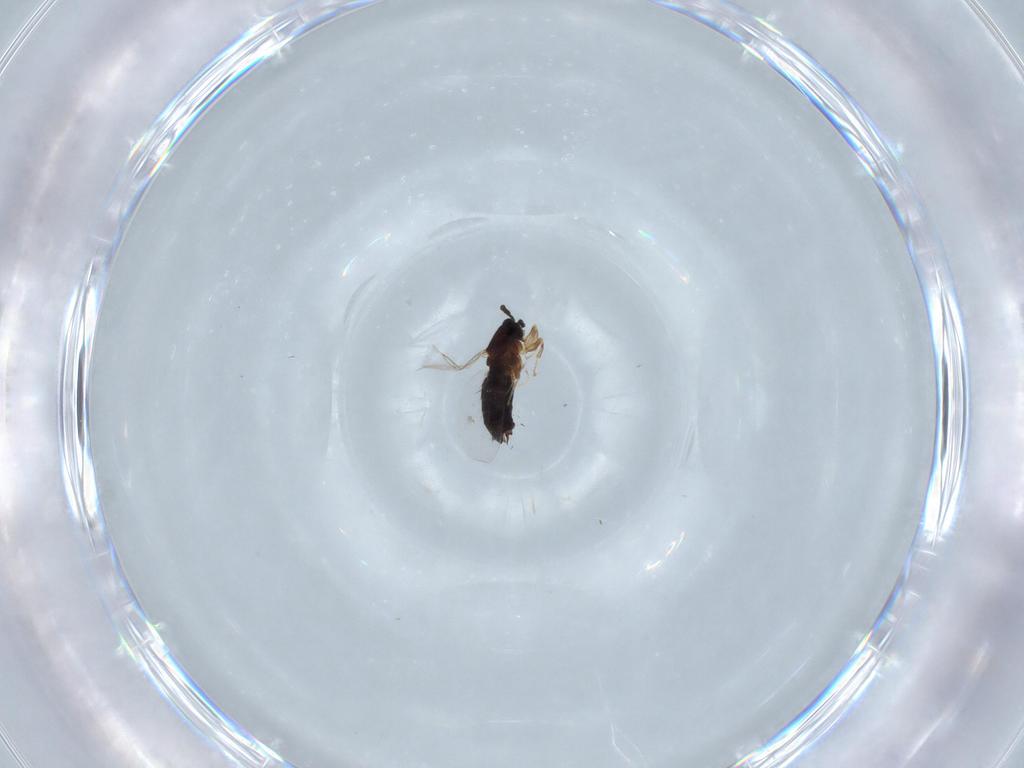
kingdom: Animalia
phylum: Arthropoda
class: Insecta
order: Diptera
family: Scatopsidae
